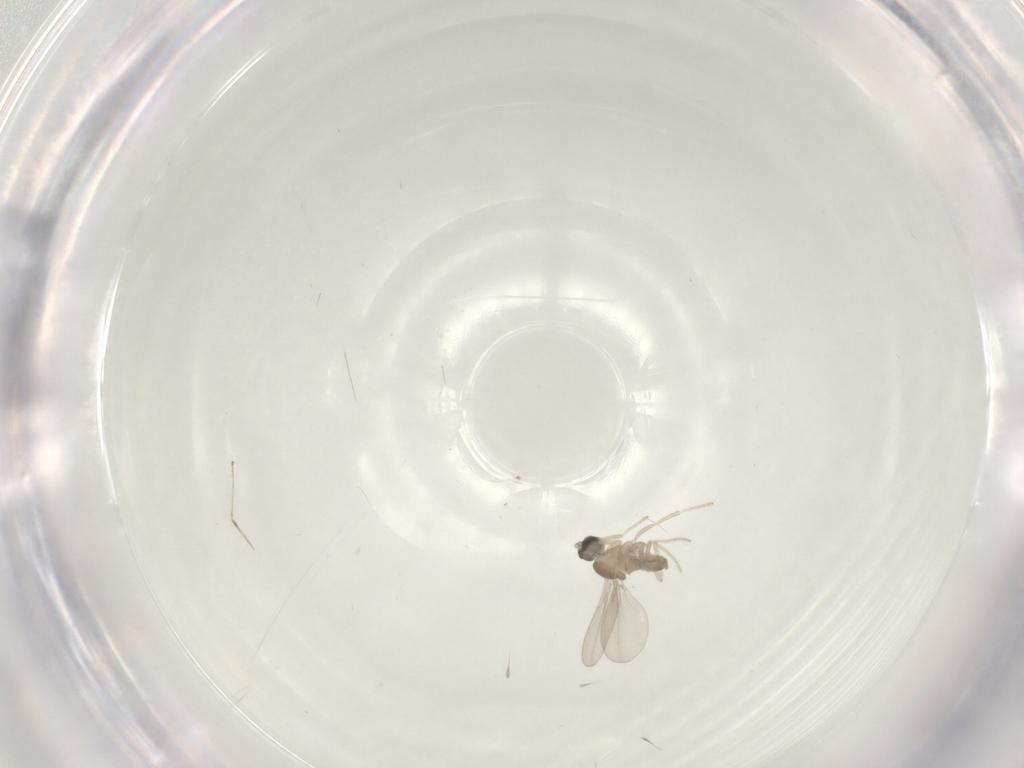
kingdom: Animalia
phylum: Arthropoda
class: Insecta
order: Diptera
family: Cecidomyiidae
